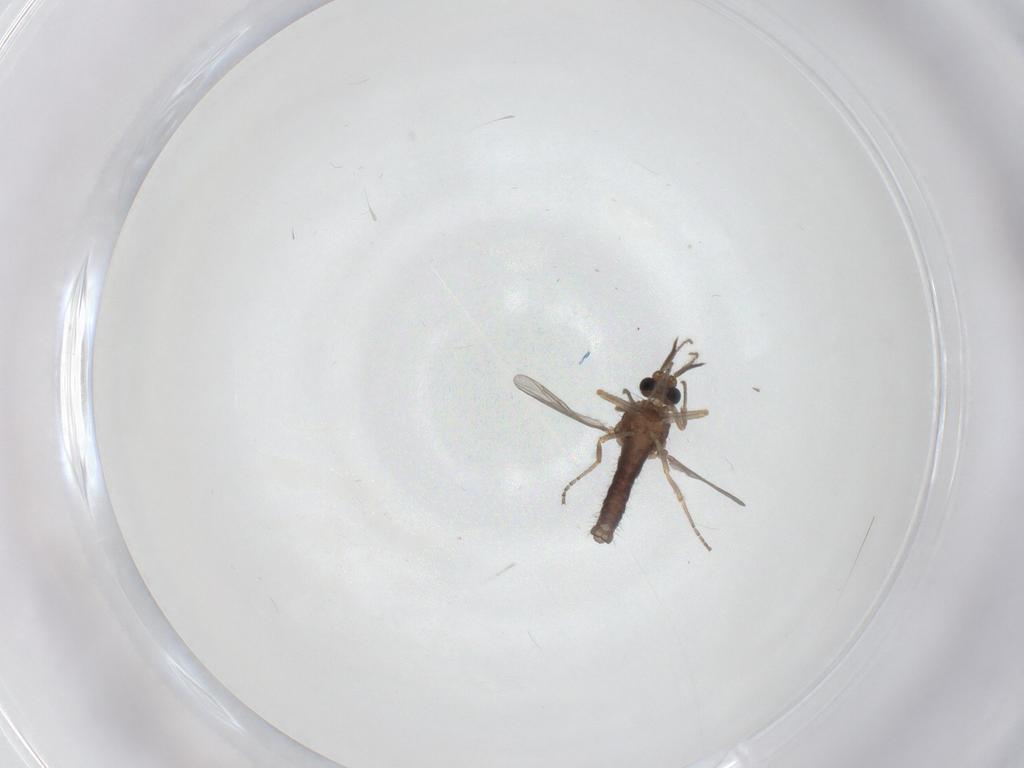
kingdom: Animalia
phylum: Arthropoda
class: Insecta
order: Diptera
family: Ceratopogonidae
